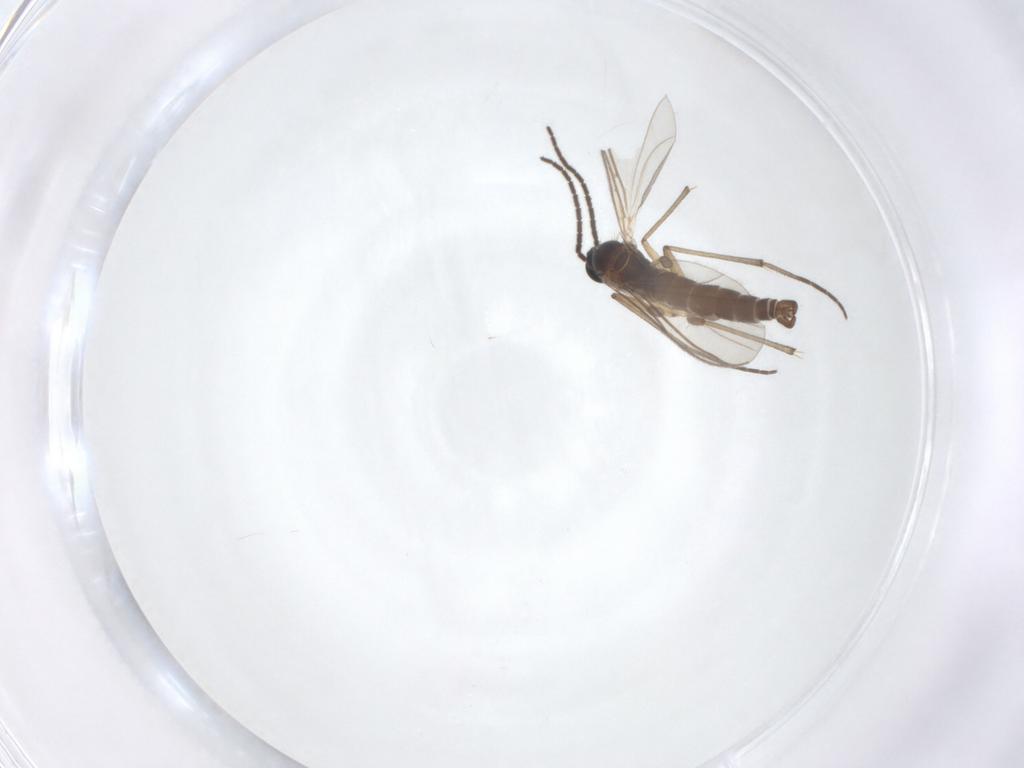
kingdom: Animalia
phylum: Arthropoda
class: Insecta
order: Diptera
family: Sciaridae
